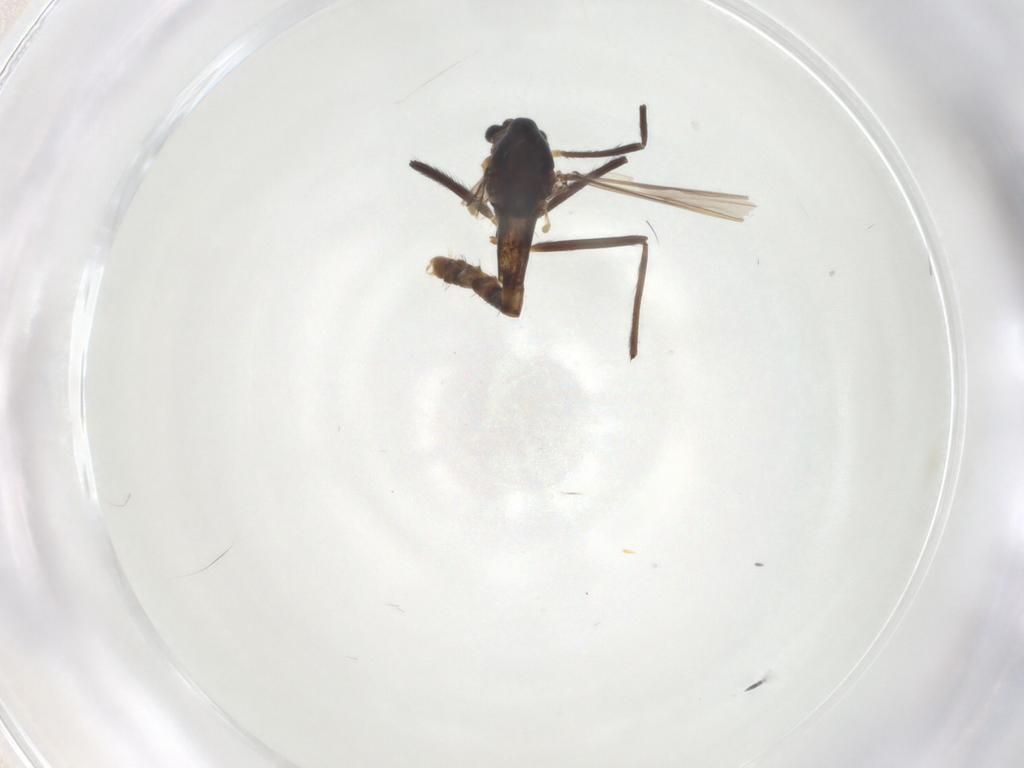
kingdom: Animalia
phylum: Arthropoda
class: Insecta
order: Diptera
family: Chironomidae
